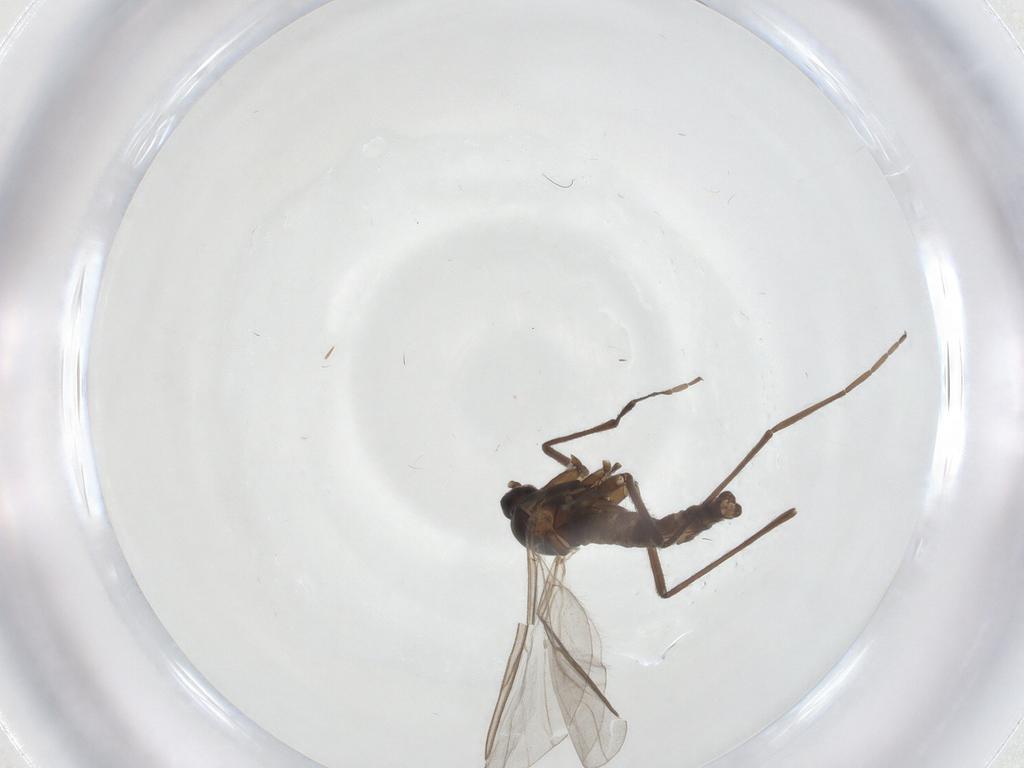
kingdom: Animalia
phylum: Arthropoda
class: Insecta
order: Diptera
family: Cecidomyiidae
